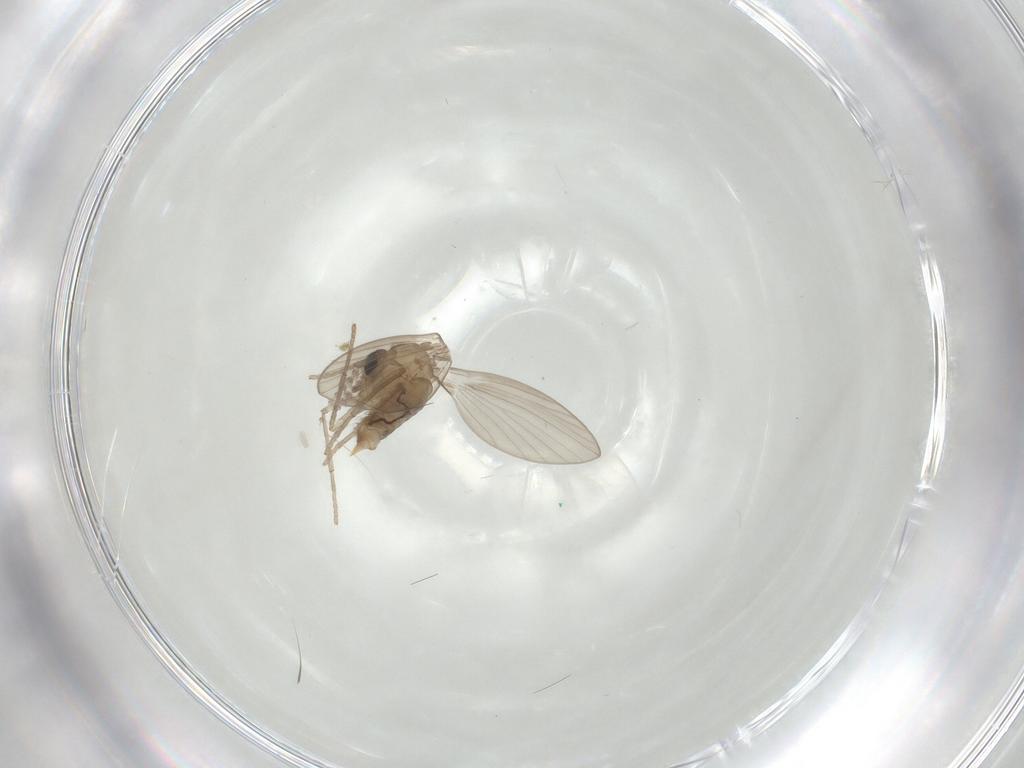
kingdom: Animalia
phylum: Arthropoda
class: Insecta
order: Diptera
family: Psychodidae
